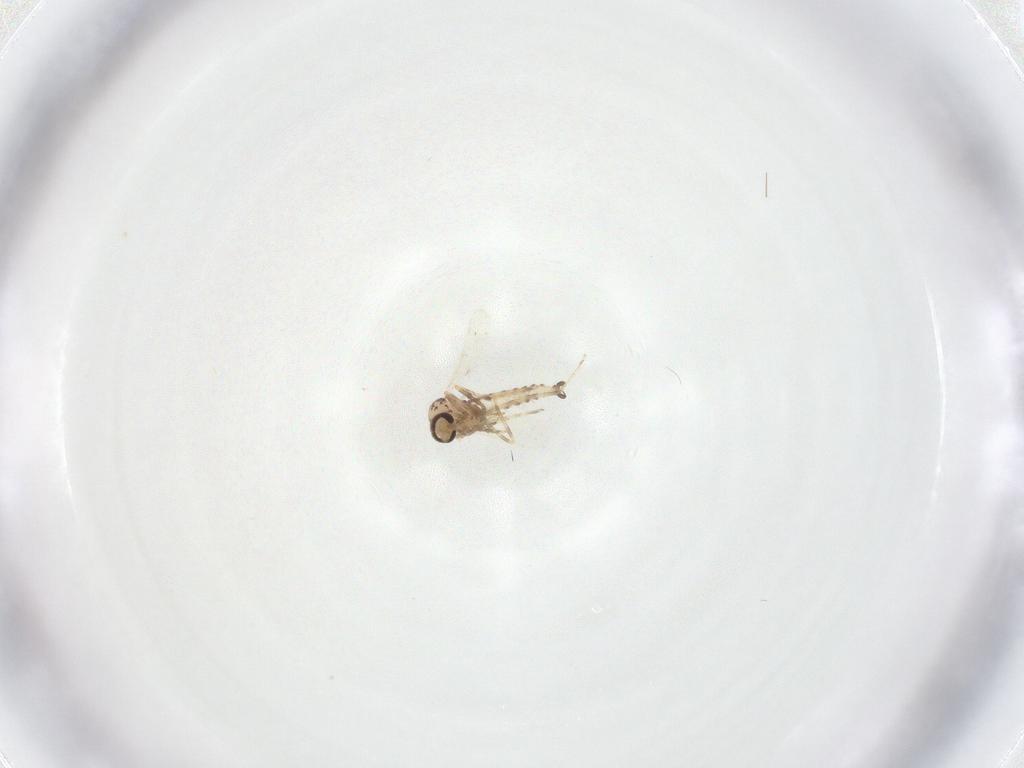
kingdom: Animalia
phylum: Arthropoda
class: Insecta
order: Diptera
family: Ceratopogonidae
